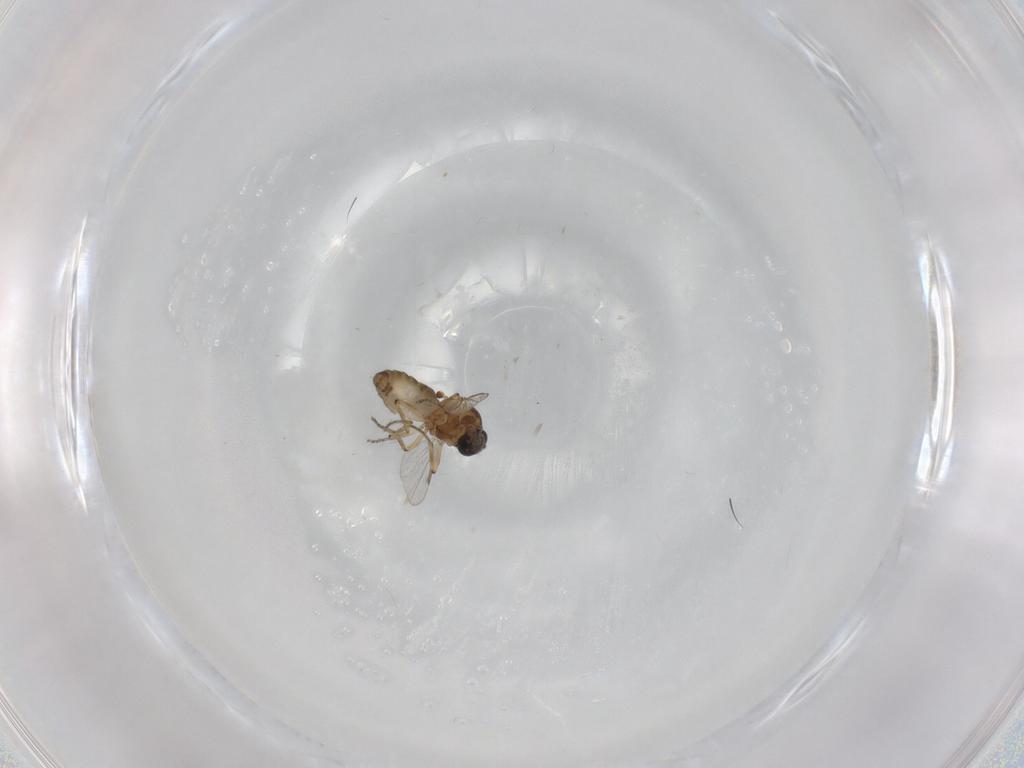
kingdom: Animalia
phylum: Arthropoda
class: Insecta
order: Diptera
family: Ceratopogonidae
